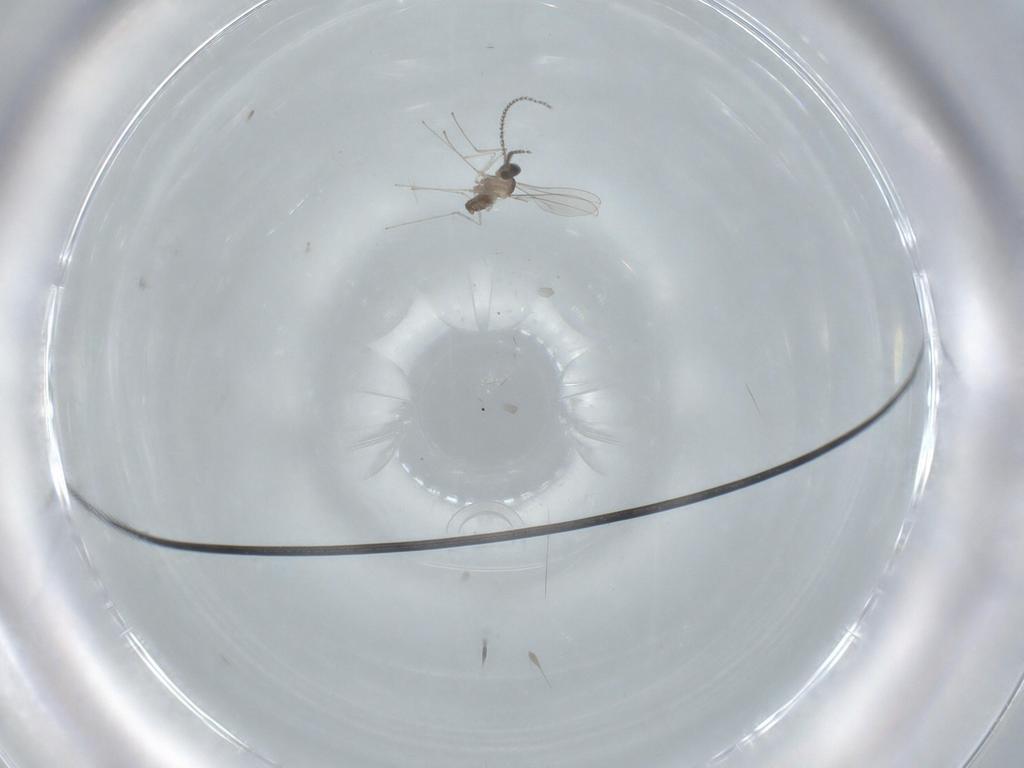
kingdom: Animalia
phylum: Arthropoda
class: Insecta
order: Diptera
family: Cecidomyiidae
